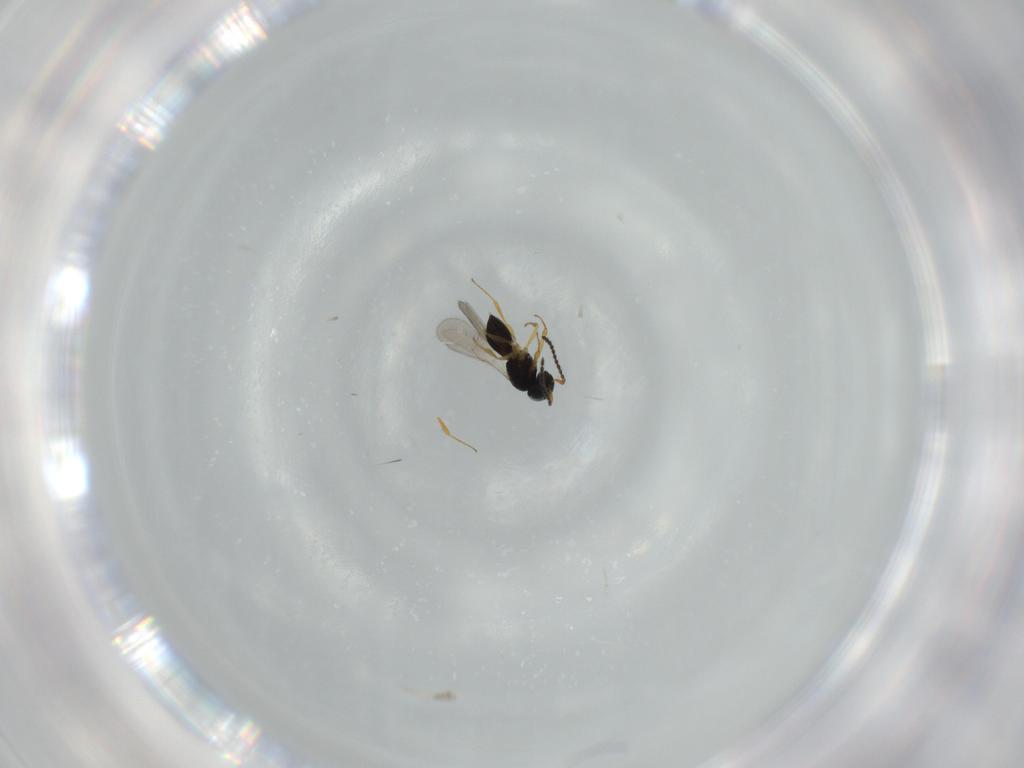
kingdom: Animalia
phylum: Arthropoda
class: Insecta
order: Hymenoptera
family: Scelionidae
